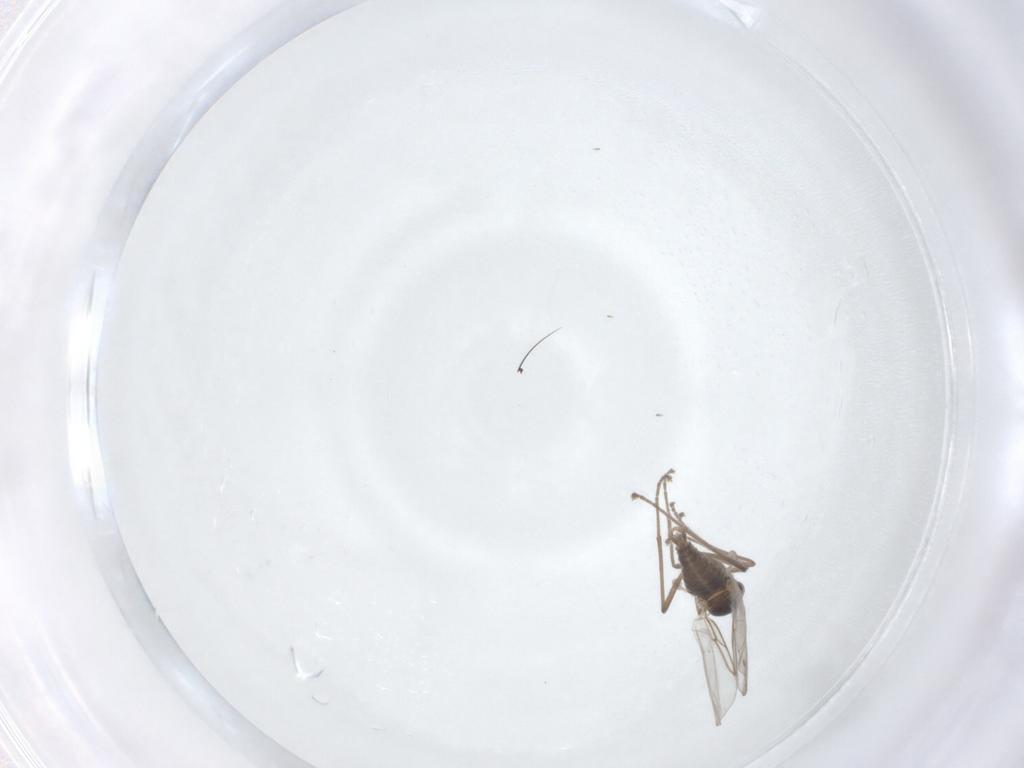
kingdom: Animalia
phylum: Arthropoda
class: Insecta
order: Diptera
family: Cecidomyiidae
